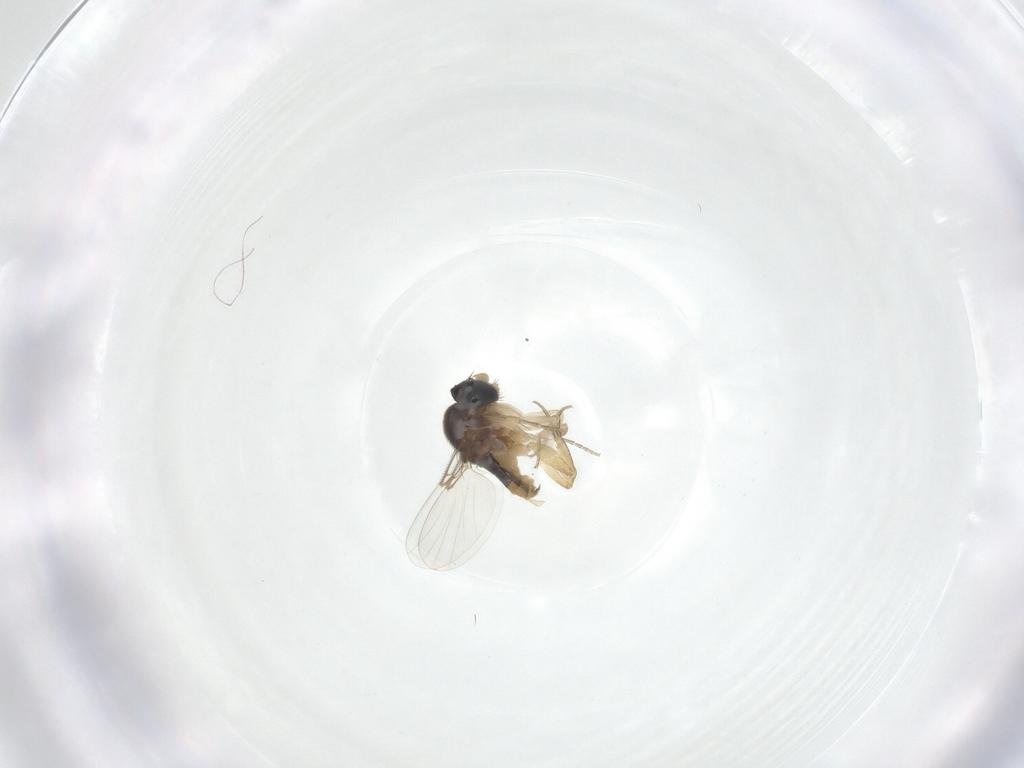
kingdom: Animalia
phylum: Arthropoda
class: Insecta
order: Diptera
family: Phoridae
